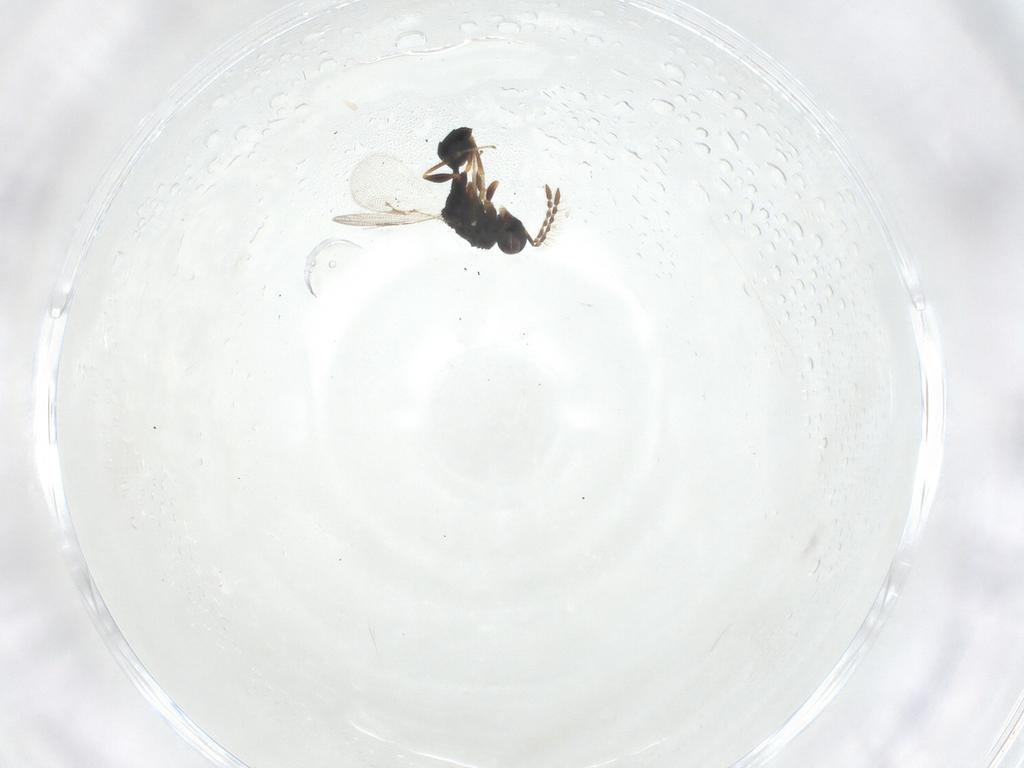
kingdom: Animalia
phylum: Arthropoda
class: Insecta
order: Hymenoptera
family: Eurytomidae
